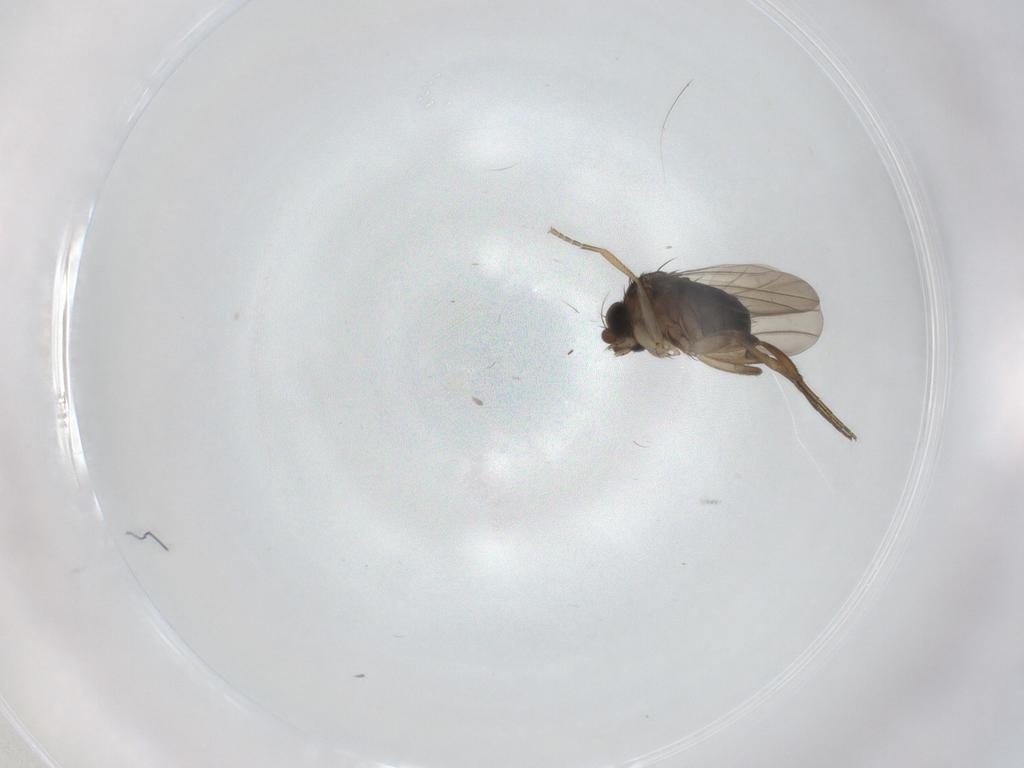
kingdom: Animalia
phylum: Arthropoda
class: Insecta
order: Diptera
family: Phoridae
